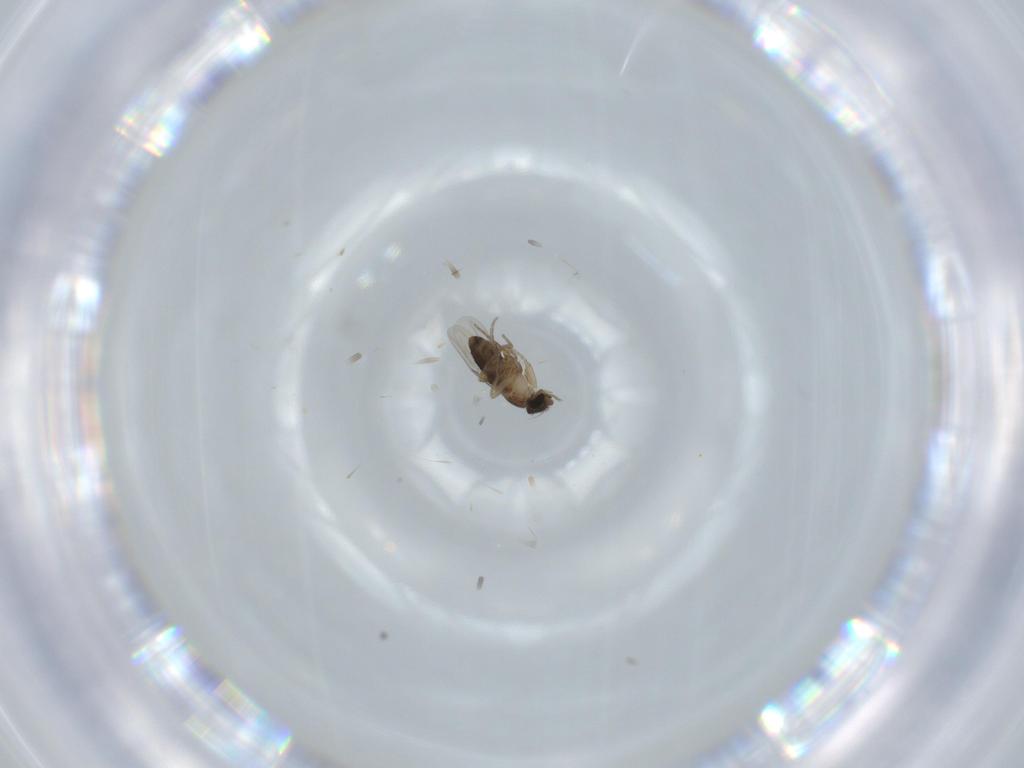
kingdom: Animalia
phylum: Arthropoda
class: Insecta
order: Diptera
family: Phoridae
